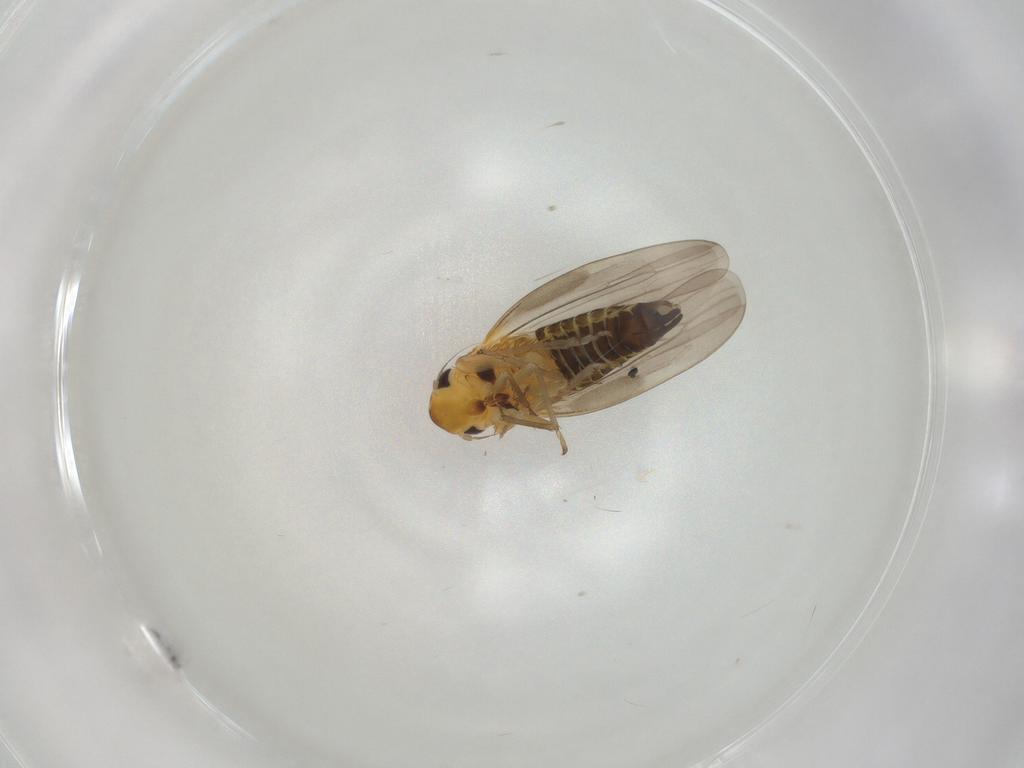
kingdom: Animalia
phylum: Arthropoda
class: Insecta
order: Hemiptera
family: Cicadellidae
